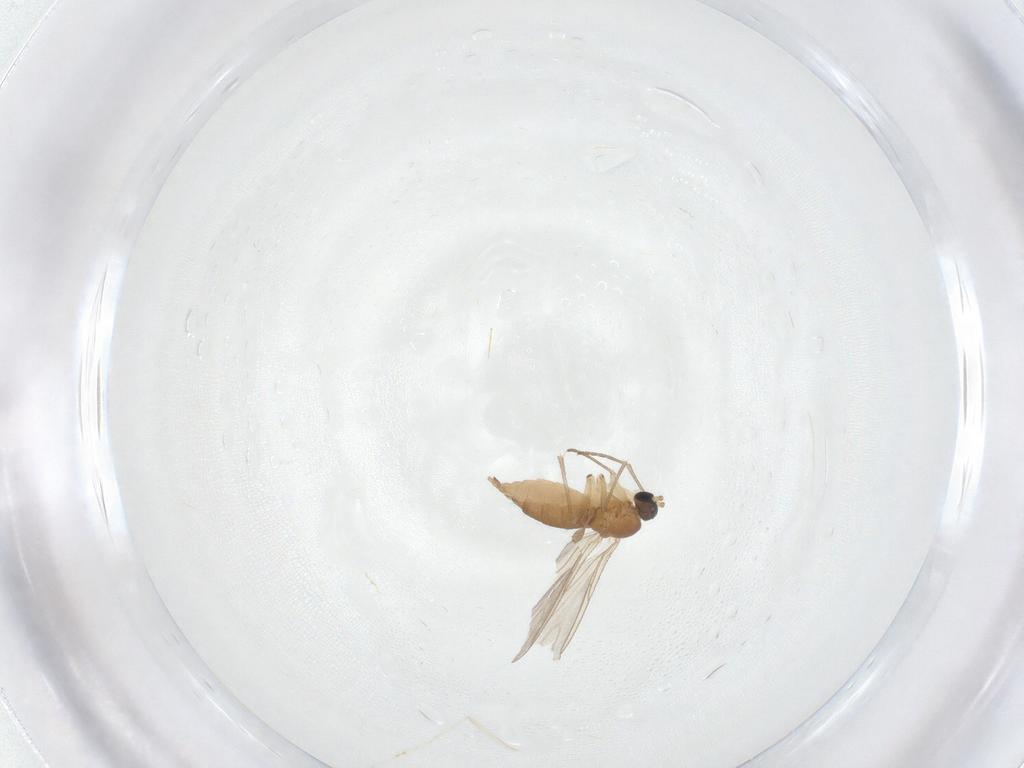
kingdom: Animalia
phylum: Arthropoda
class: Insecta
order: Diptera
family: Sciaridae
